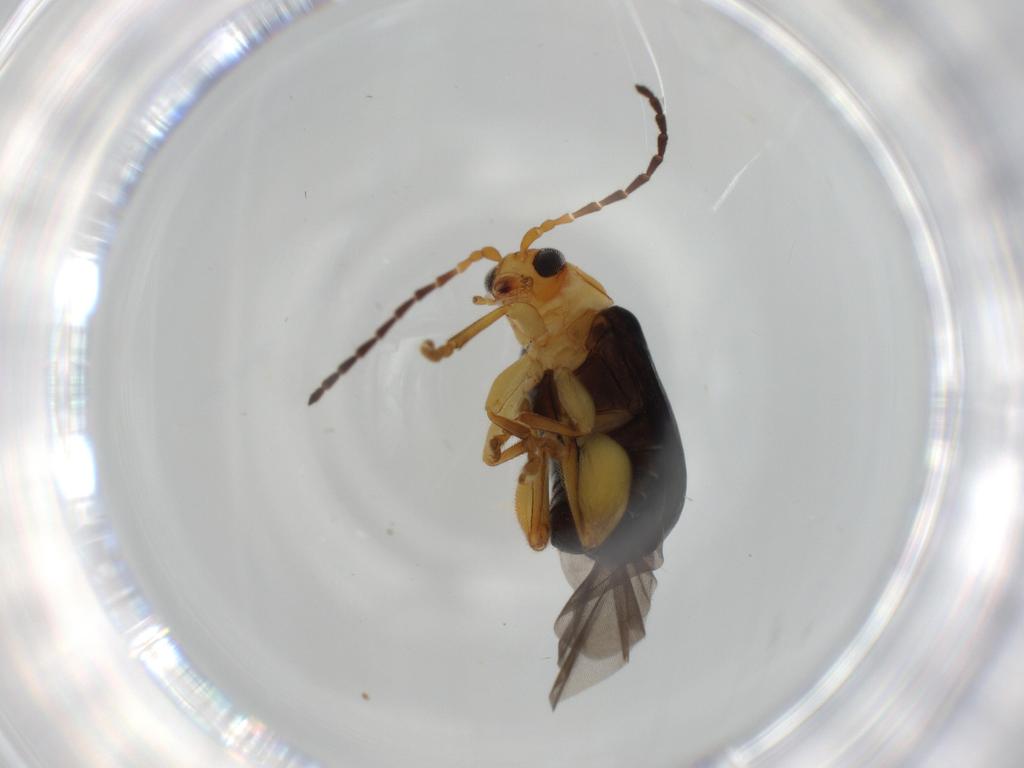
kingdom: Animalia
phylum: Arthropoda
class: Insecta
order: Coleoptera
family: Chrysomelidae
